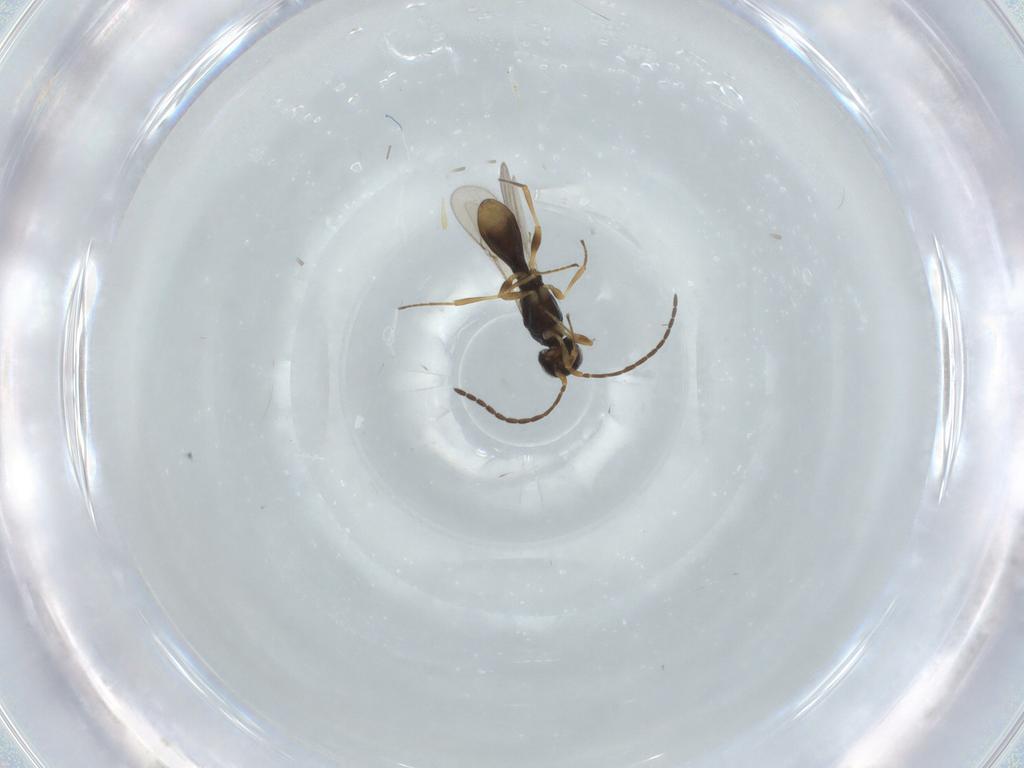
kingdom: Animalia
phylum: Arthropoda
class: Insecta
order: Hymenoptera
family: Scelionidae
